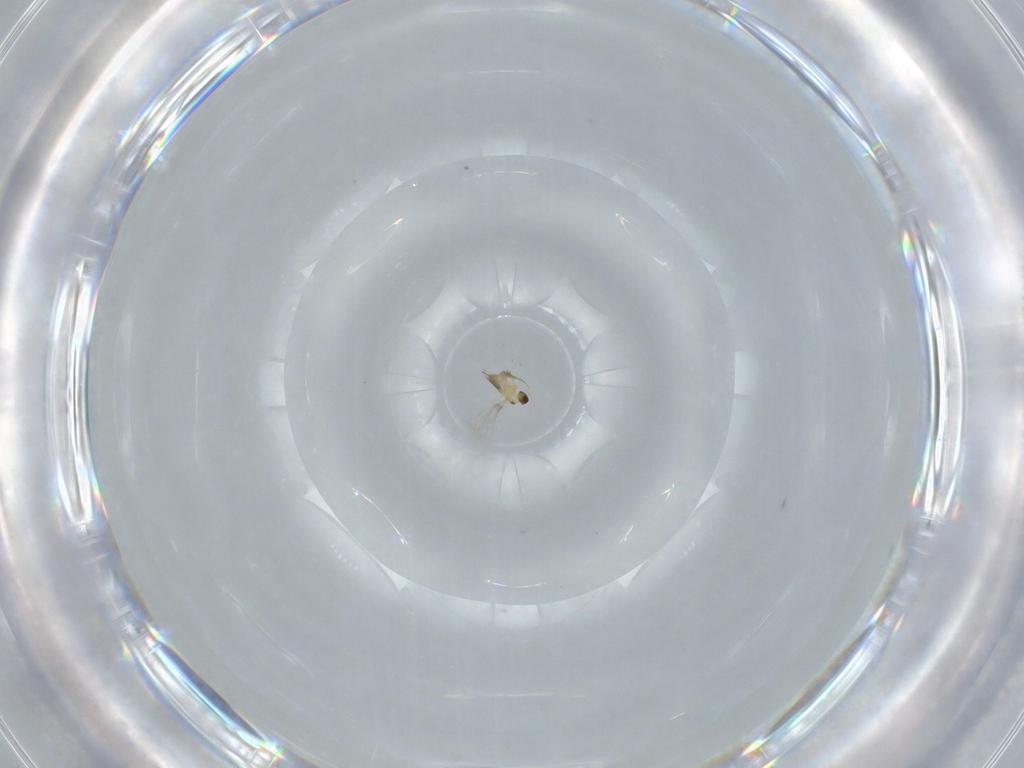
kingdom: Animalia
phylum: Arthropoda
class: Insecta
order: Hymenoptera
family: Mymaridae
